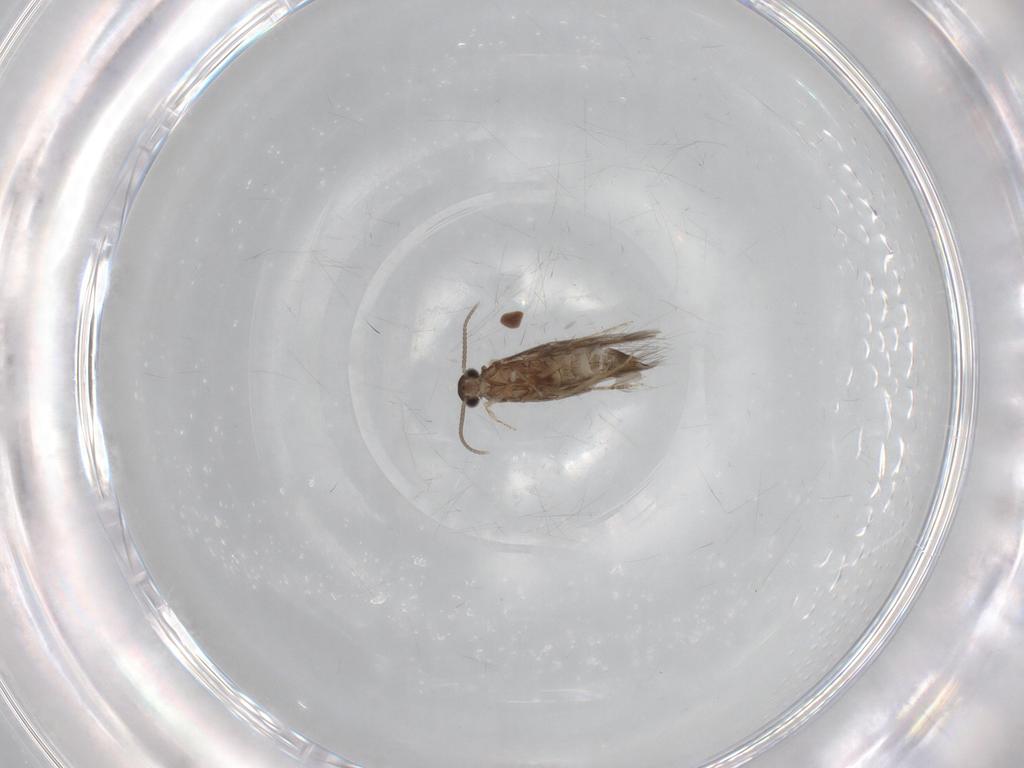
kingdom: Animalia
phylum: Arthropoda
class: Insecta
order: Trichoptera
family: Hydroptilidae
